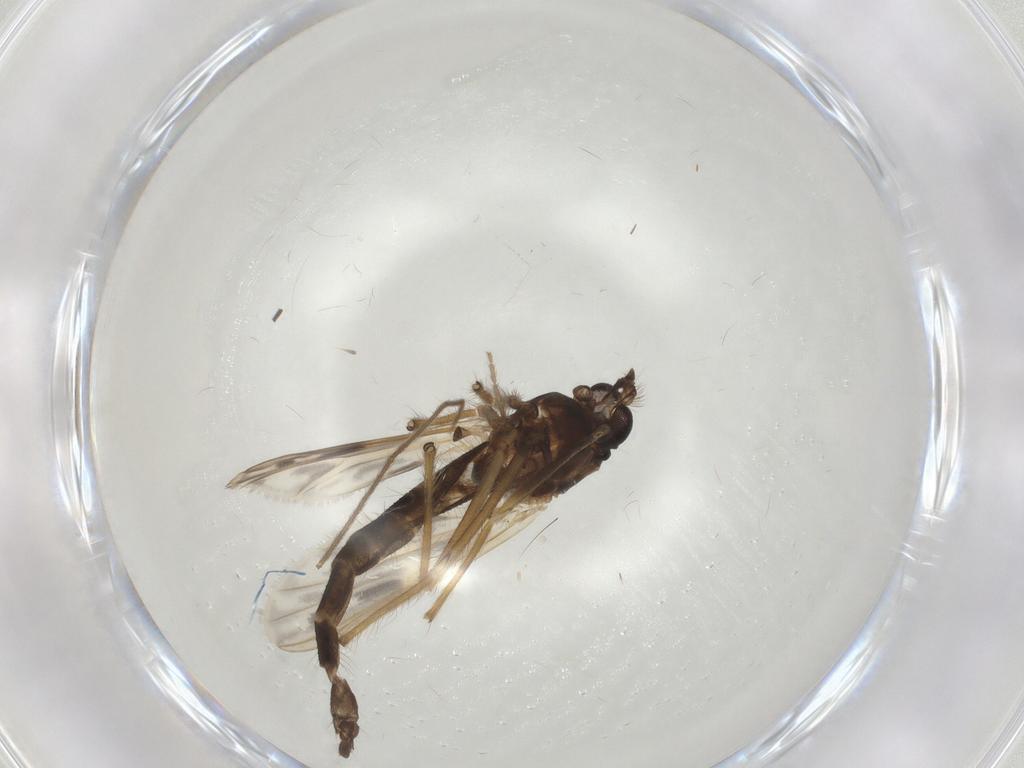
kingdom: Animalia
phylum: Arthropoda
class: Insecta
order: Diptera
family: Chironomidae
